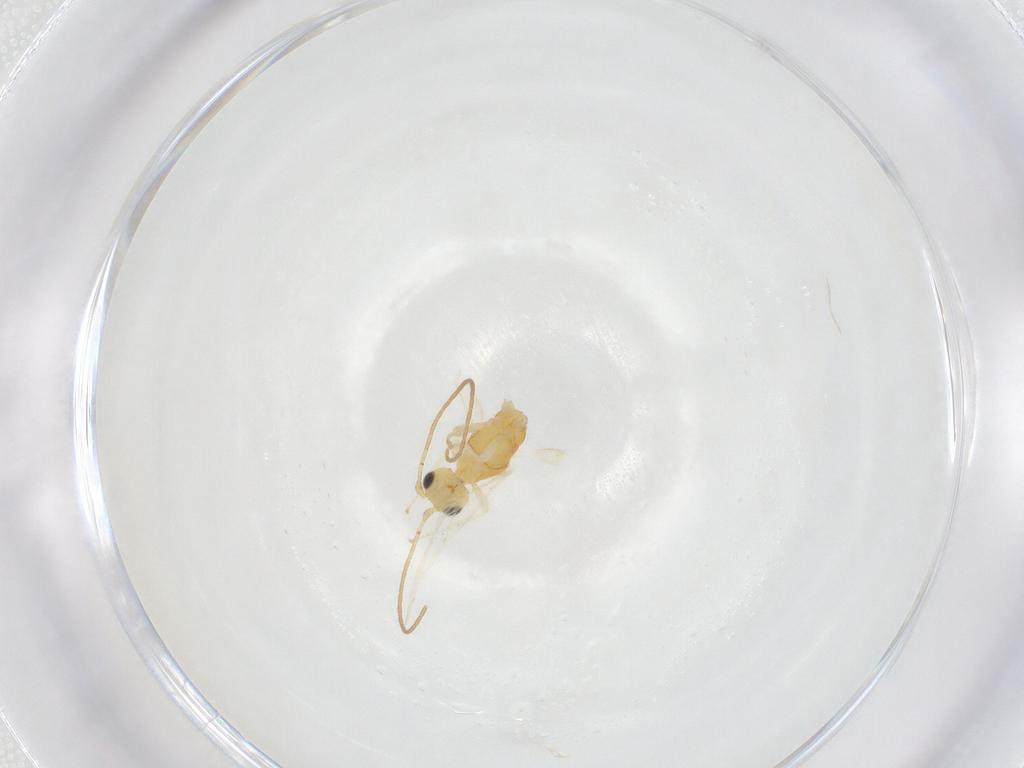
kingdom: Animalia
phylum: Arthropoda
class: Insecta
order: Hymenoptera
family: Braconidae
